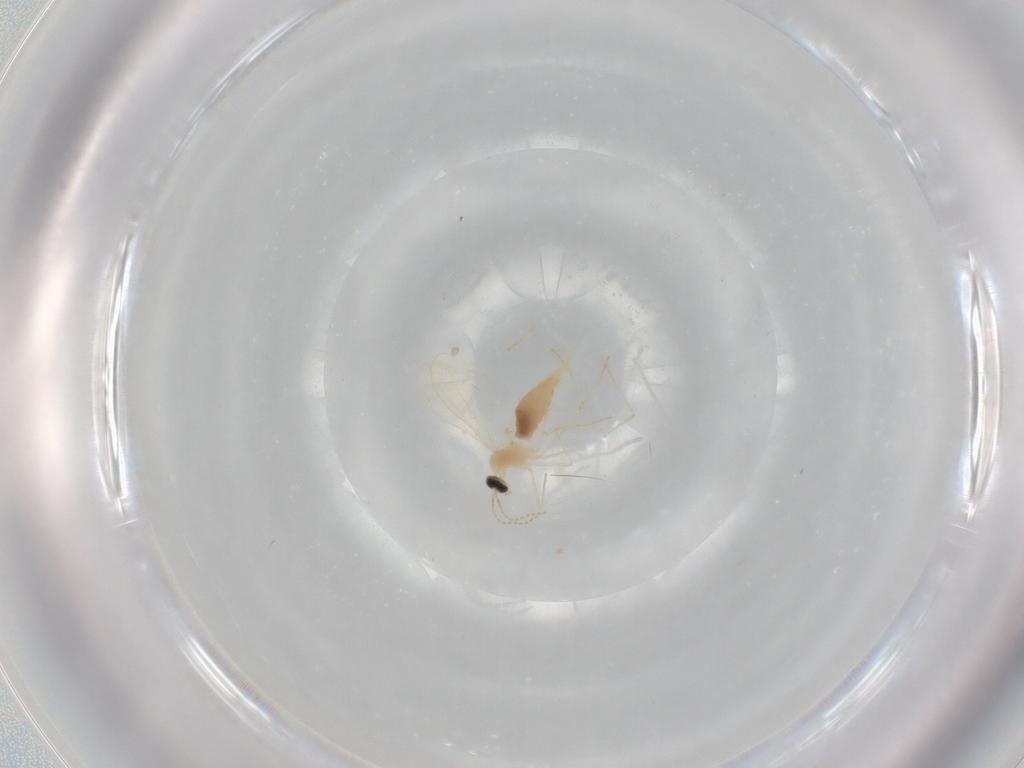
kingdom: Animalia
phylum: Arthropoda
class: Insecta
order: Diptera
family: Cecidomyiidae
